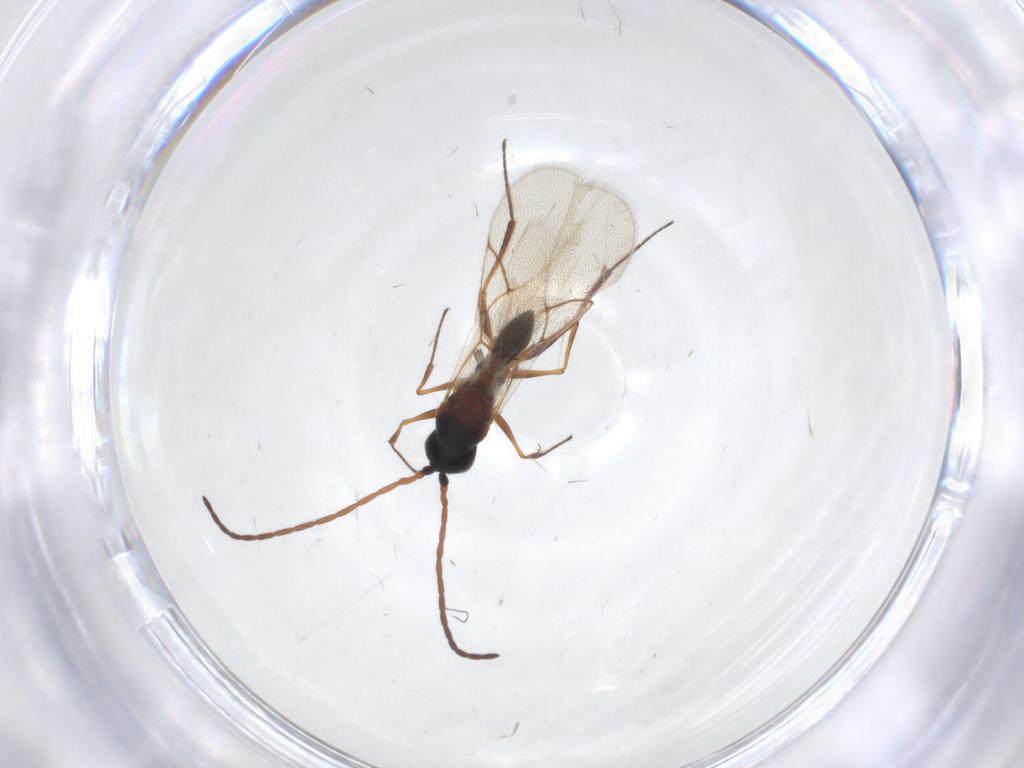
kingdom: Animalia
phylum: Arthropoda
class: Insecta
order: Hymenoptera
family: Figitidae
